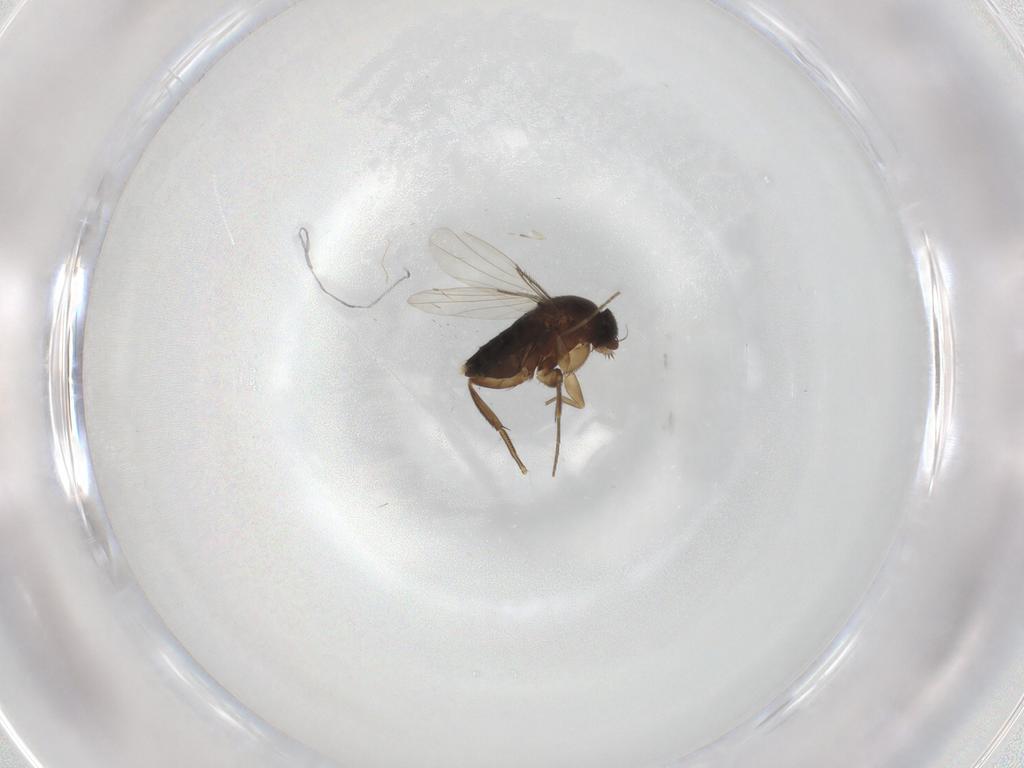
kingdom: Animalia
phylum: Arthropoda
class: Insecta
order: Diptera
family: Phoridae
